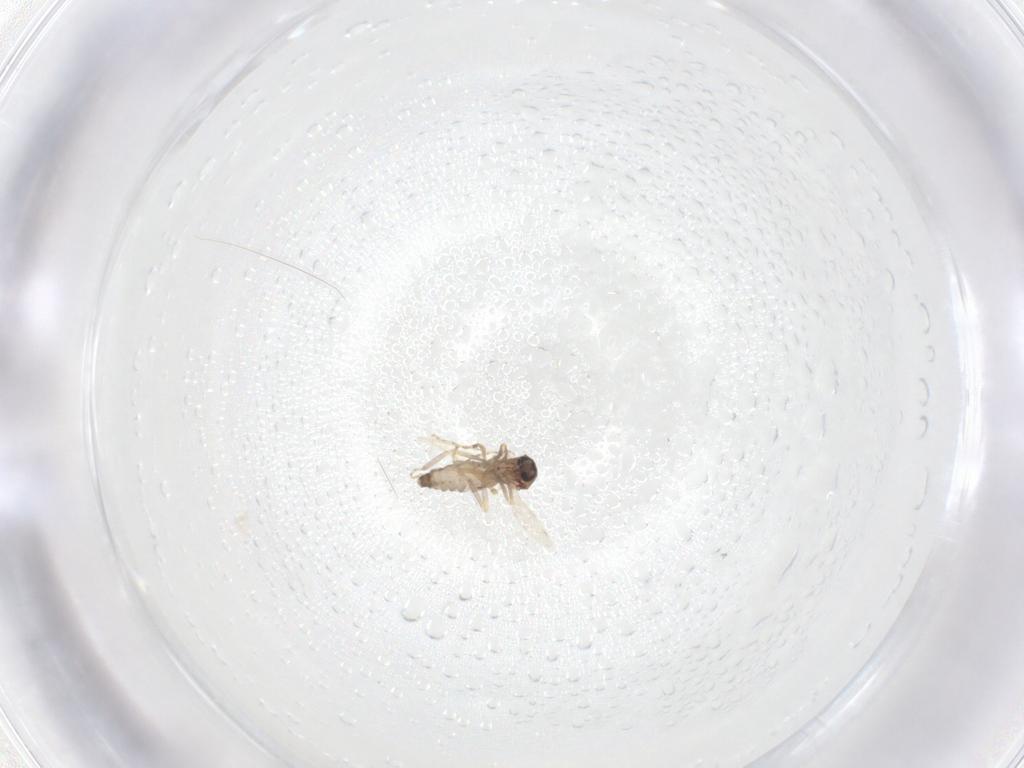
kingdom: Animalia
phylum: Arthropoda
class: Insecta
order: Diptera
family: Ceratopogonidae
